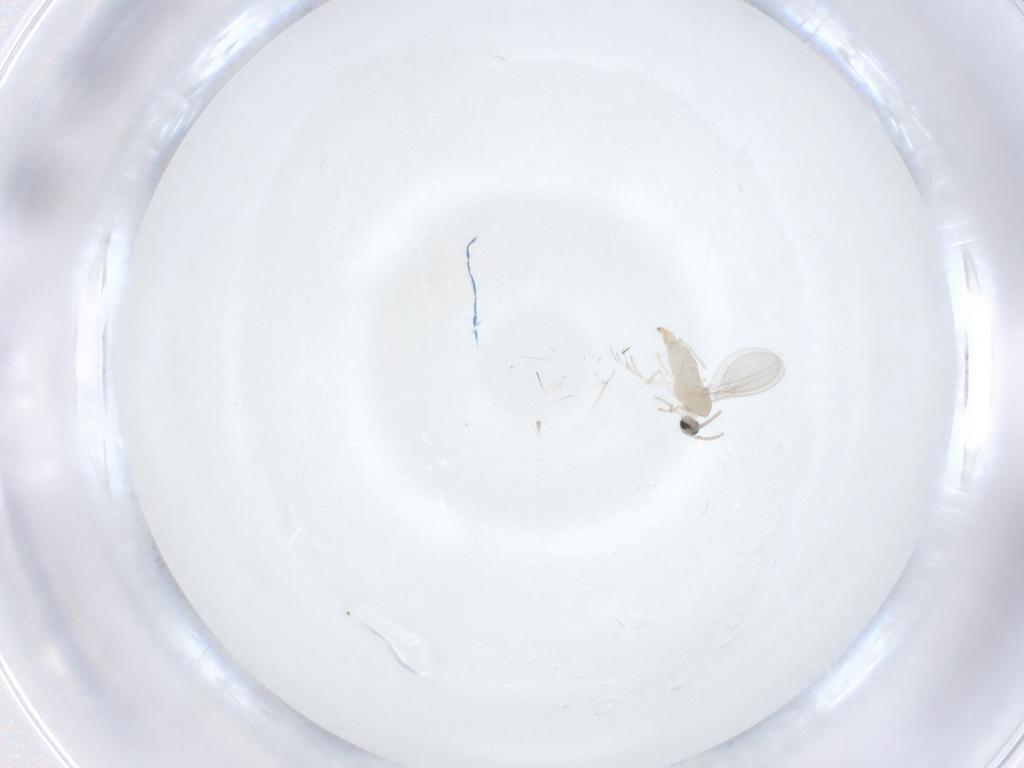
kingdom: Animalia
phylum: Arthropoda
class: Insecta
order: Diptera
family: Cecidomyiidae
